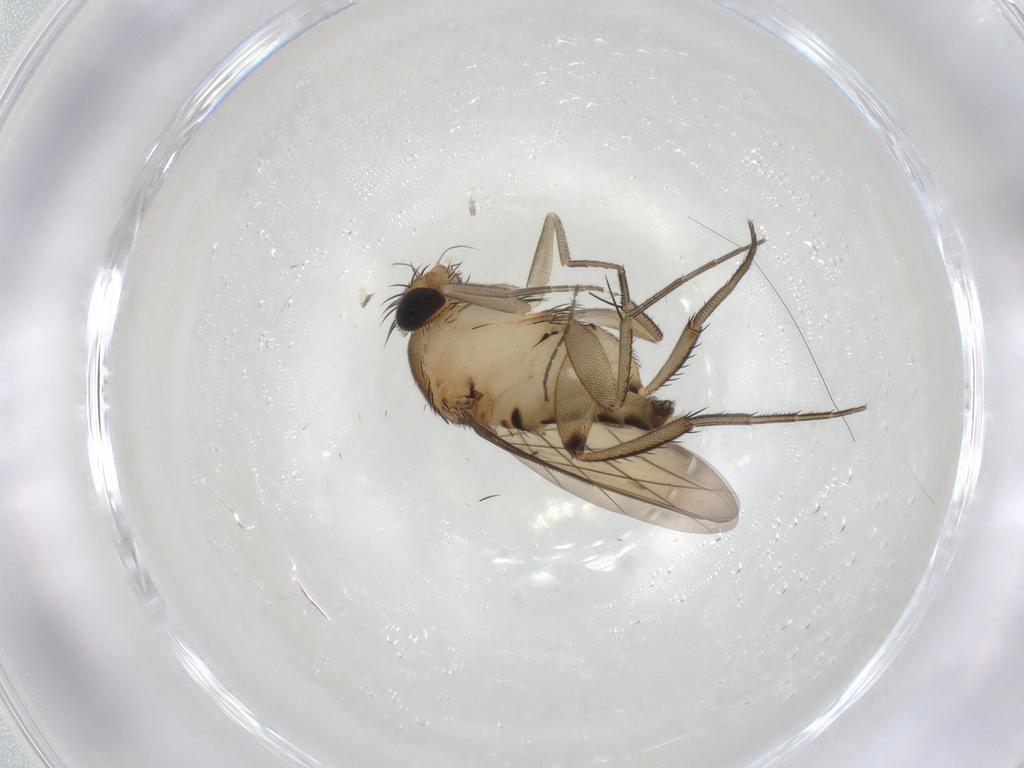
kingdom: Animalia
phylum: Arthropoda
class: Insecta
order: Diptera
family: Phoridae
